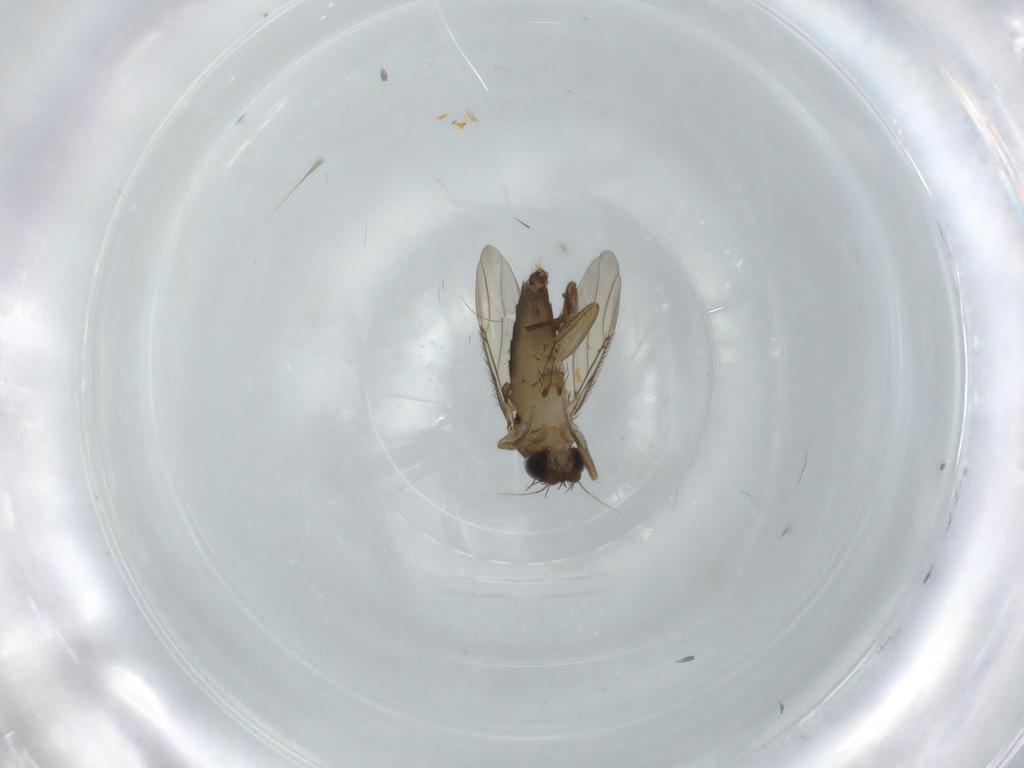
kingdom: Animalia
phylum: Arthropoda
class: Insecta
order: Diptera
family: Phoridae
